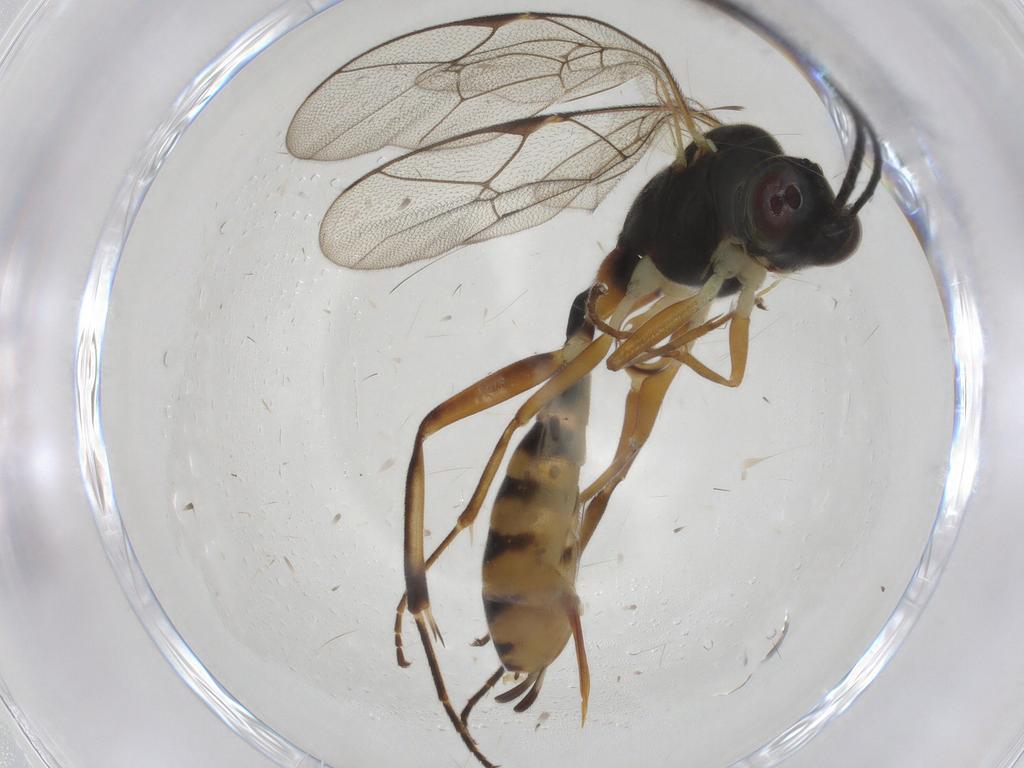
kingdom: Animalia
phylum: Arthropoda
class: Insecta
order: Hymenoptera
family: Ichneumonidae
